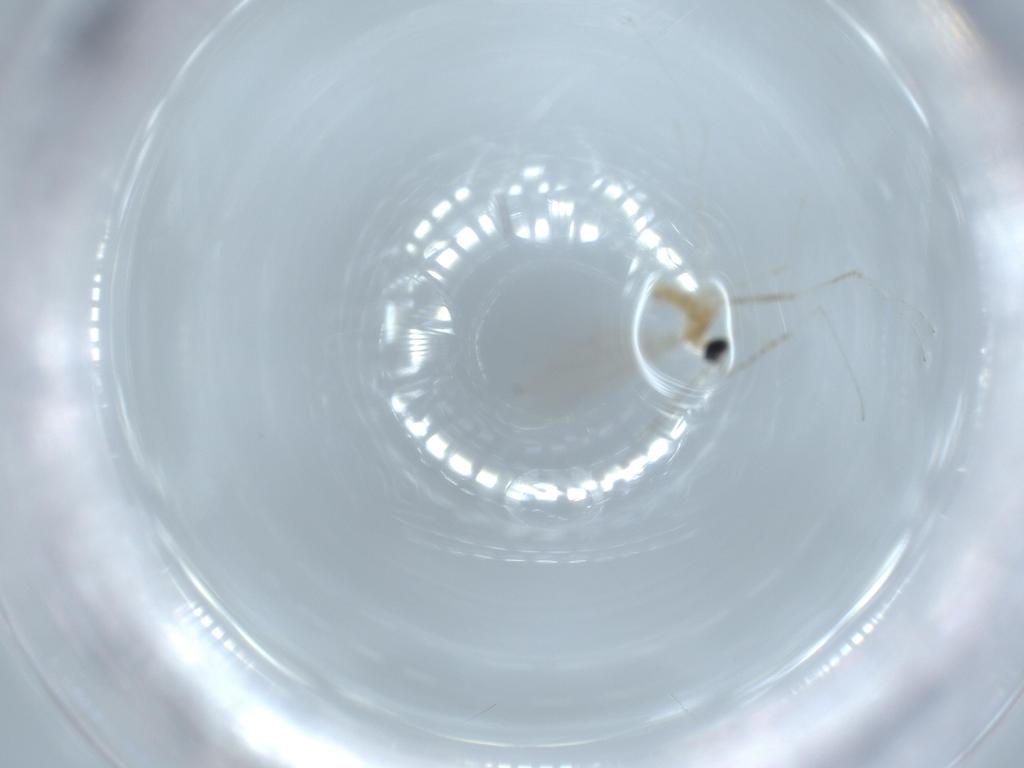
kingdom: Animalia
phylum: Arthropoda
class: Insecta
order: Diptera
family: Cecidomyiidae
